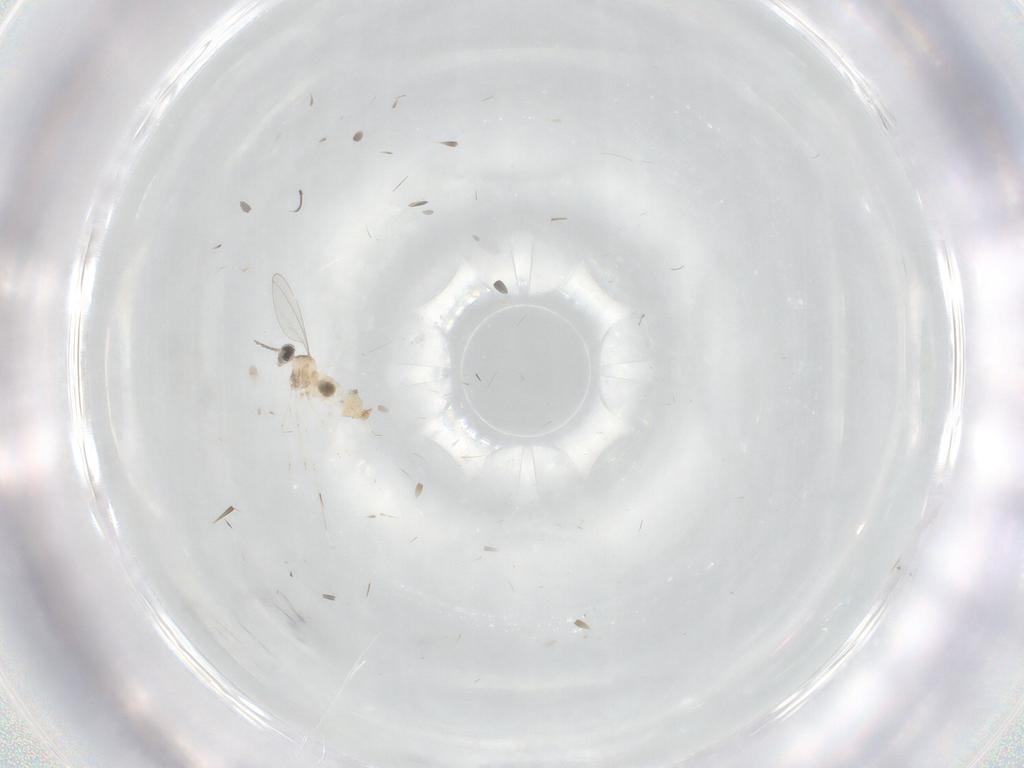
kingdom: Animalia
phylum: Arthropoda
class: Insecta
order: Diptera
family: Cecidomyiidae
